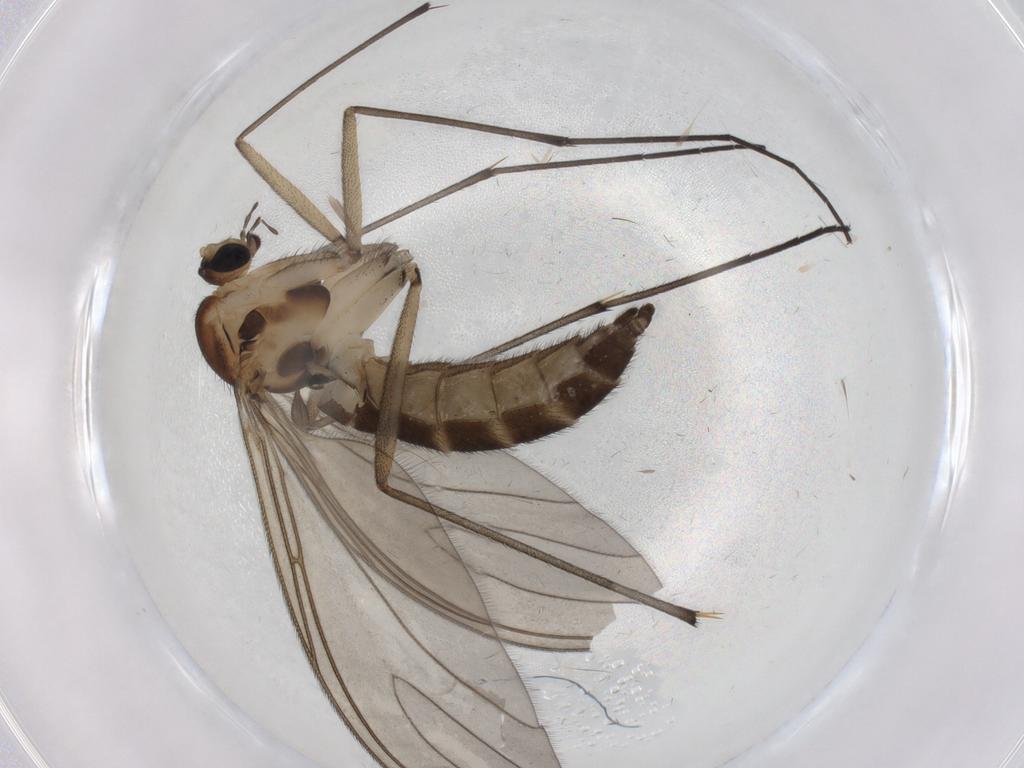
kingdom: Animalia
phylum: Arthropoda
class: Insecta
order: Diptera
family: Sciaridae
